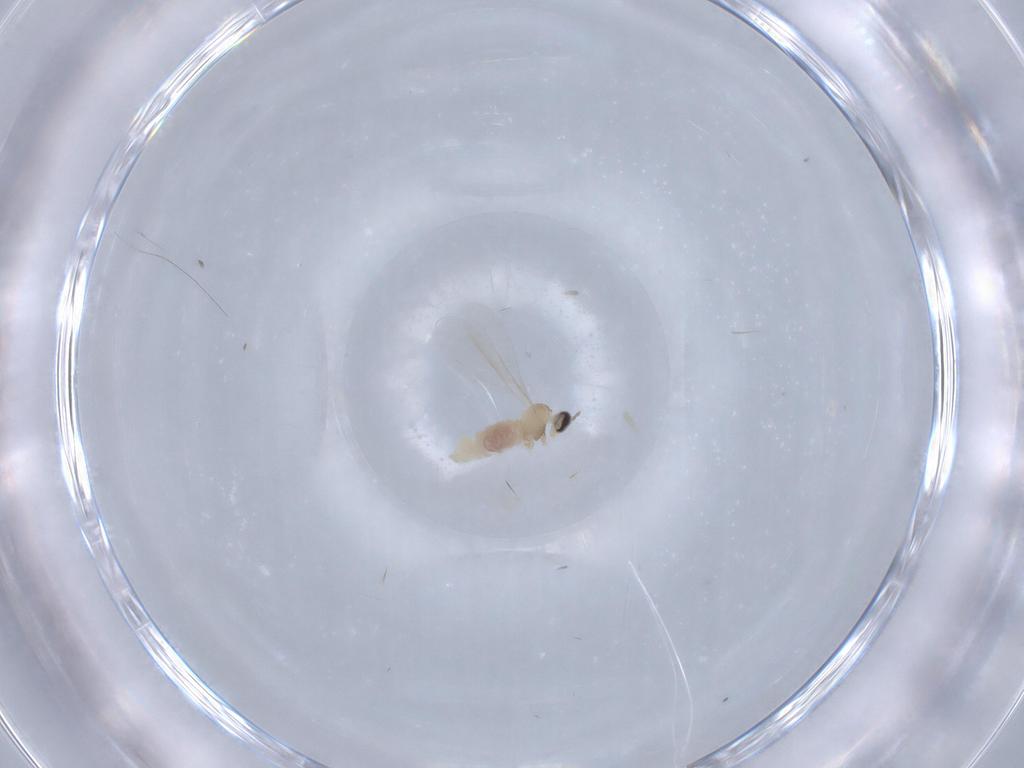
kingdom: Animalia
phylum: Arthropoda
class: Insecta
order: Diptera
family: Cecidomyiidae
